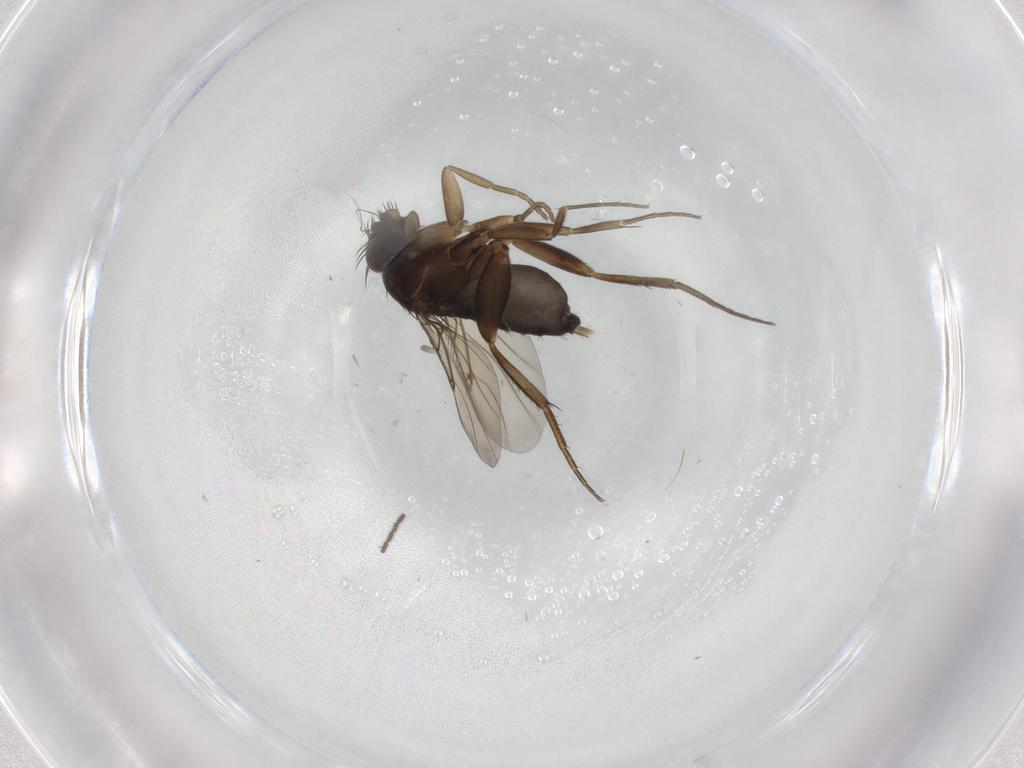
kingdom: Animalia
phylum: Arthropoda
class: Insecta
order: Diptera
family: Phoridae
